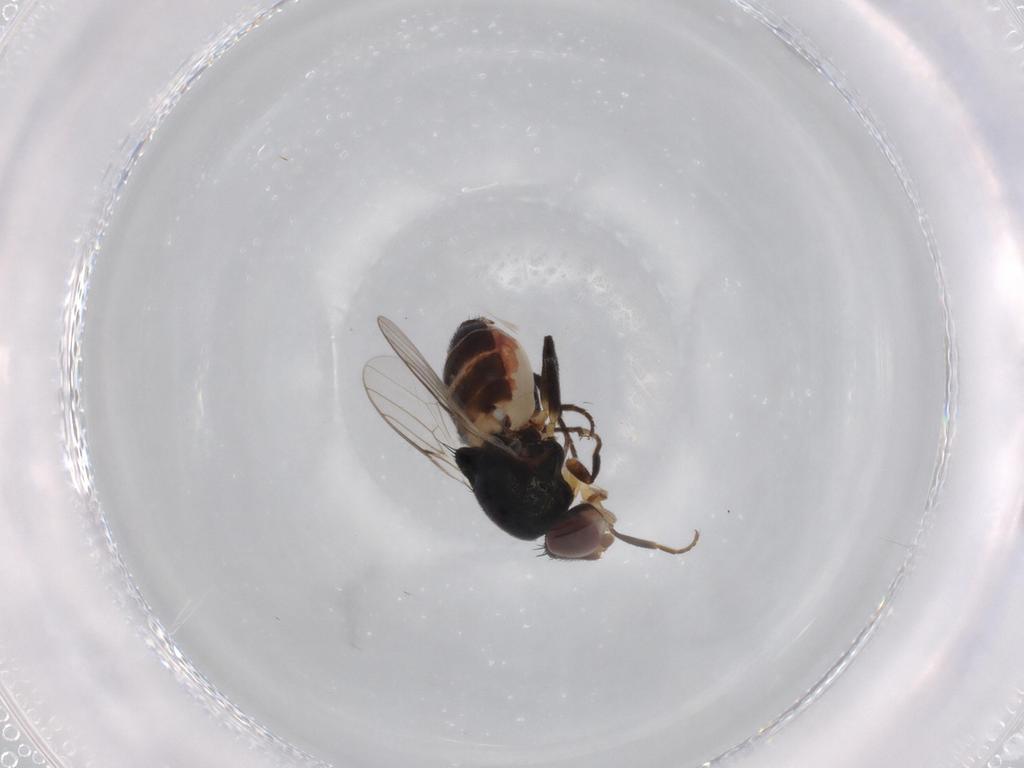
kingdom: Animalia
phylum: Arthropoda
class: Insecta
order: Diptera
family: Chloropidae
